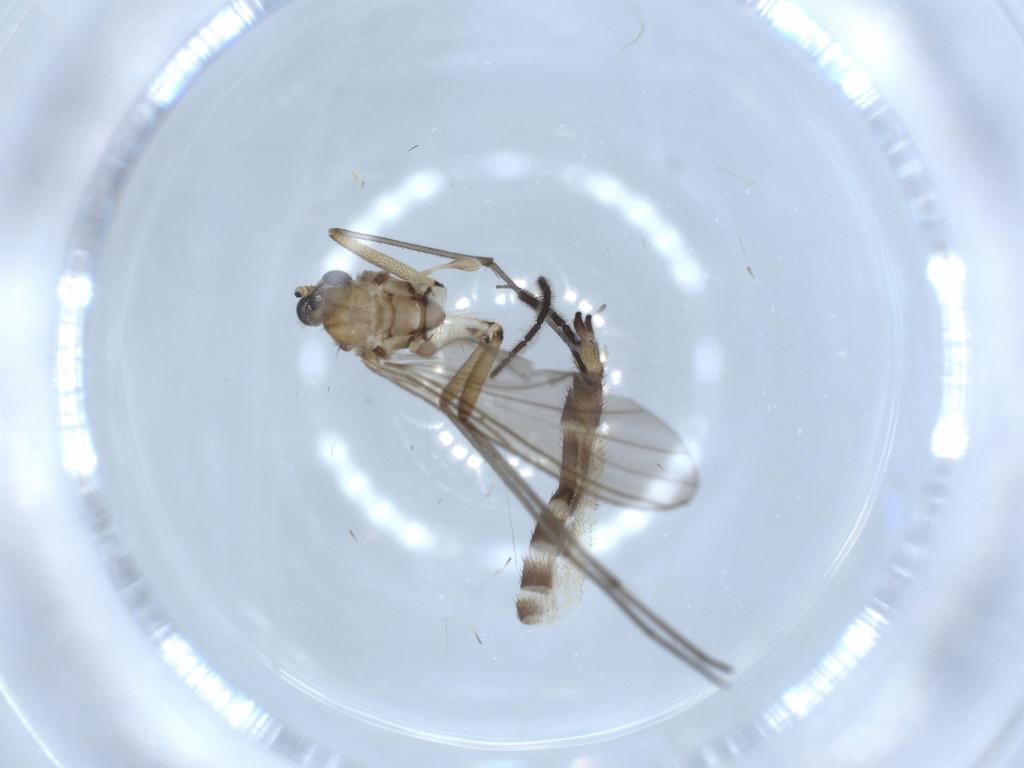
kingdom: Animalia
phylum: Arthropoda
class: Insecta
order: Diptera
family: Sciaridae
